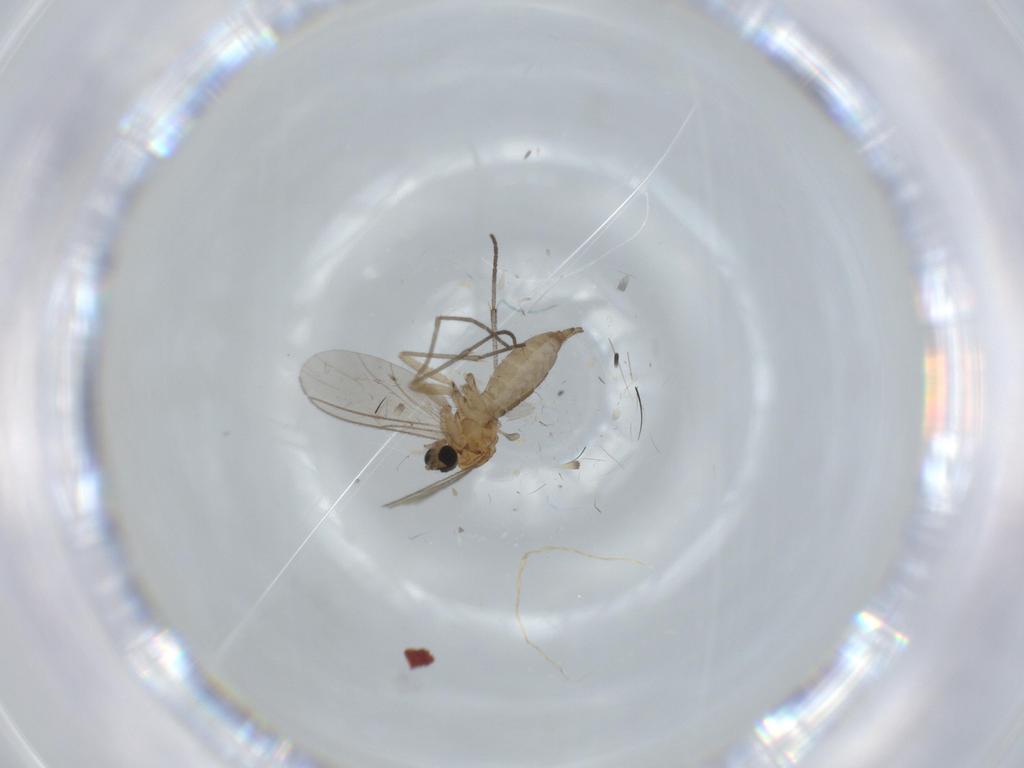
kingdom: Animalia
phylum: Arthropoda
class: Insecta
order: Diptera
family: Sciaridae
